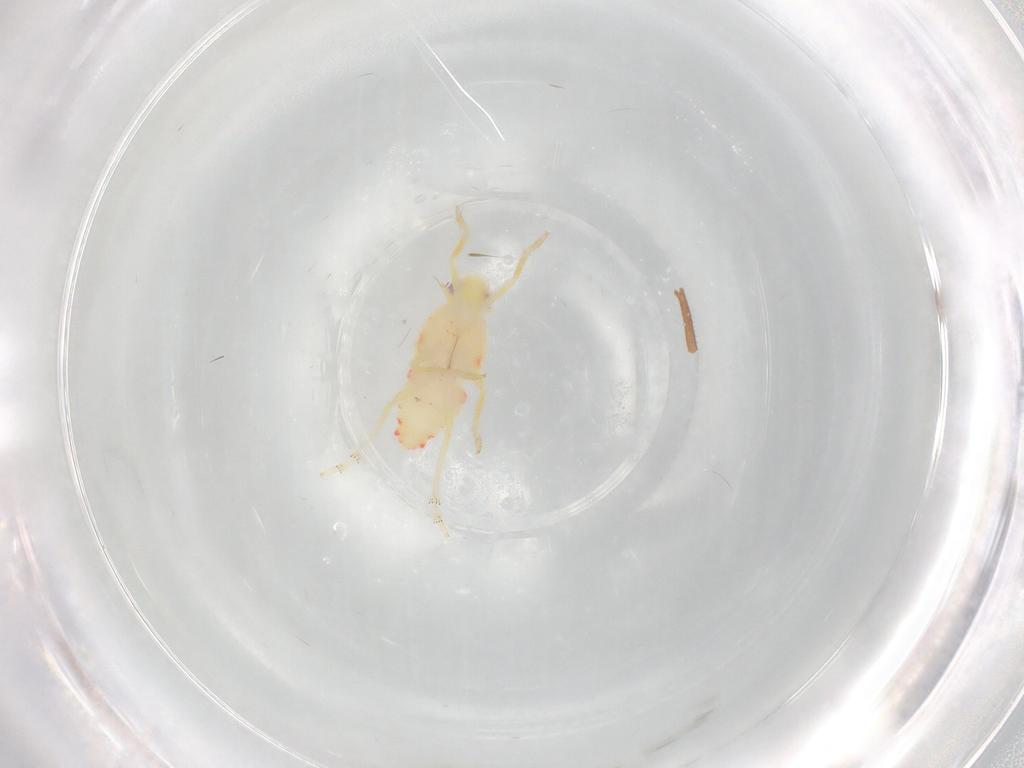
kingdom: Animalia
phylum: Arthropoda
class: Insecta
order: Hemiptera
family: Tropiduchidae
